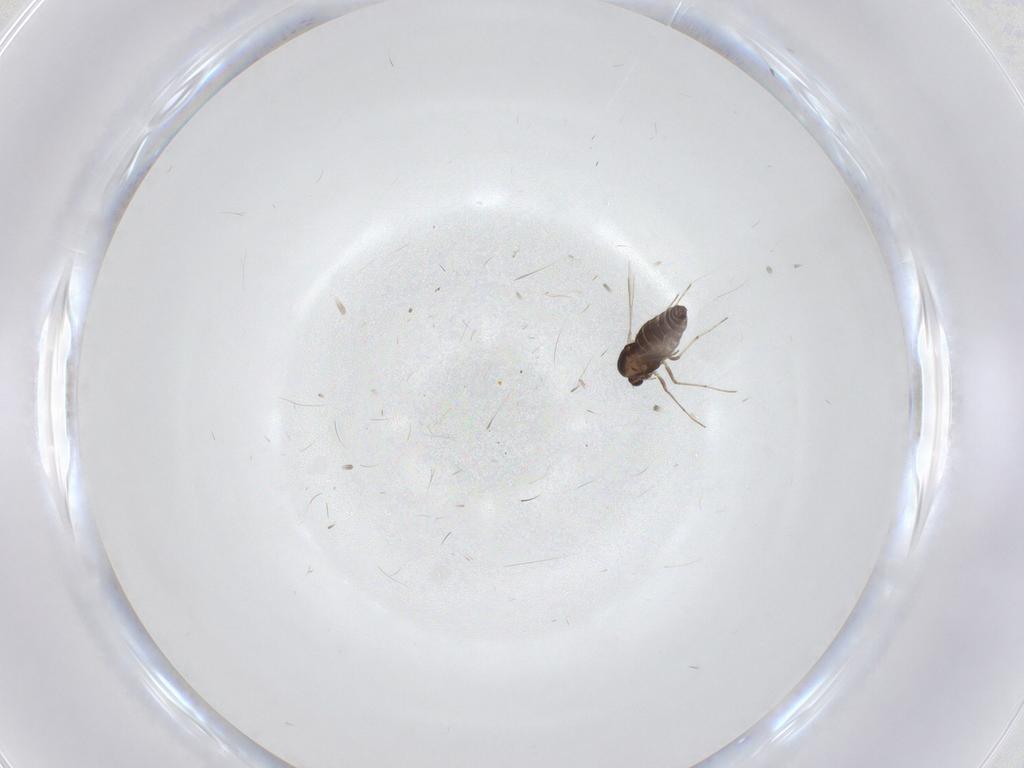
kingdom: Animalia
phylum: Arthropoda
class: Insecta
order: Diptera
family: Chironomidae
